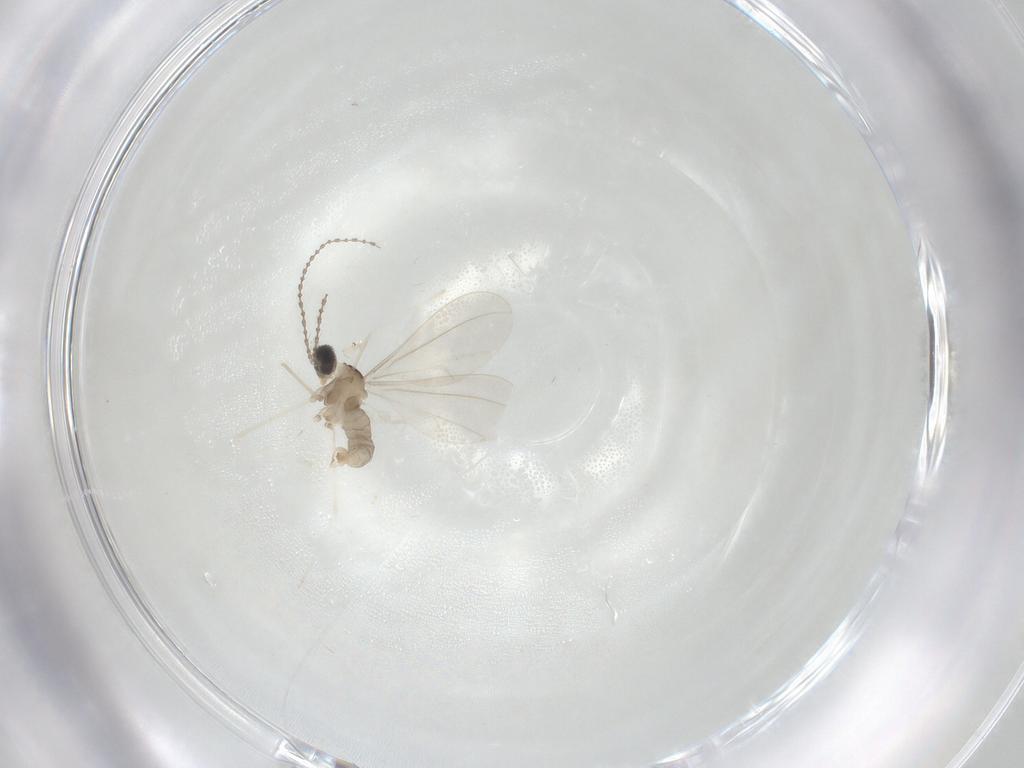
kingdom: Animalia
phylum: Arthropoda
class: Insecta
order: Diptera
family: Cecidomyiidae
